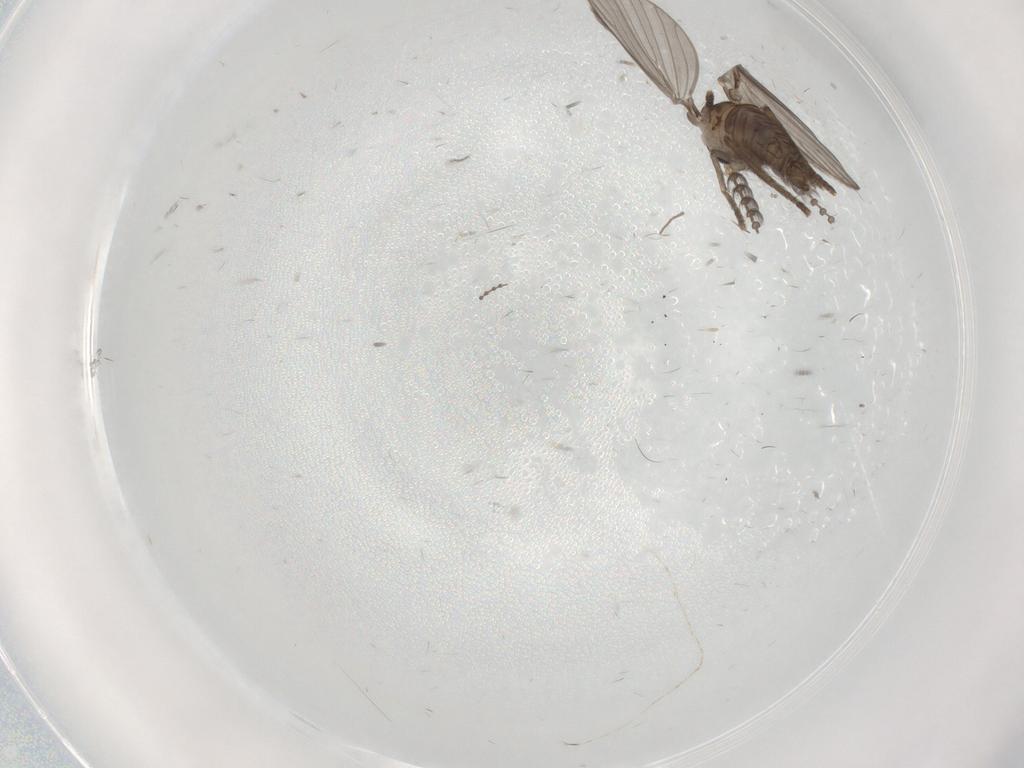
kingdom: Animalia
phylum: Arthropoda
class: Insecta
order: Diptera
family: Psychodidae
